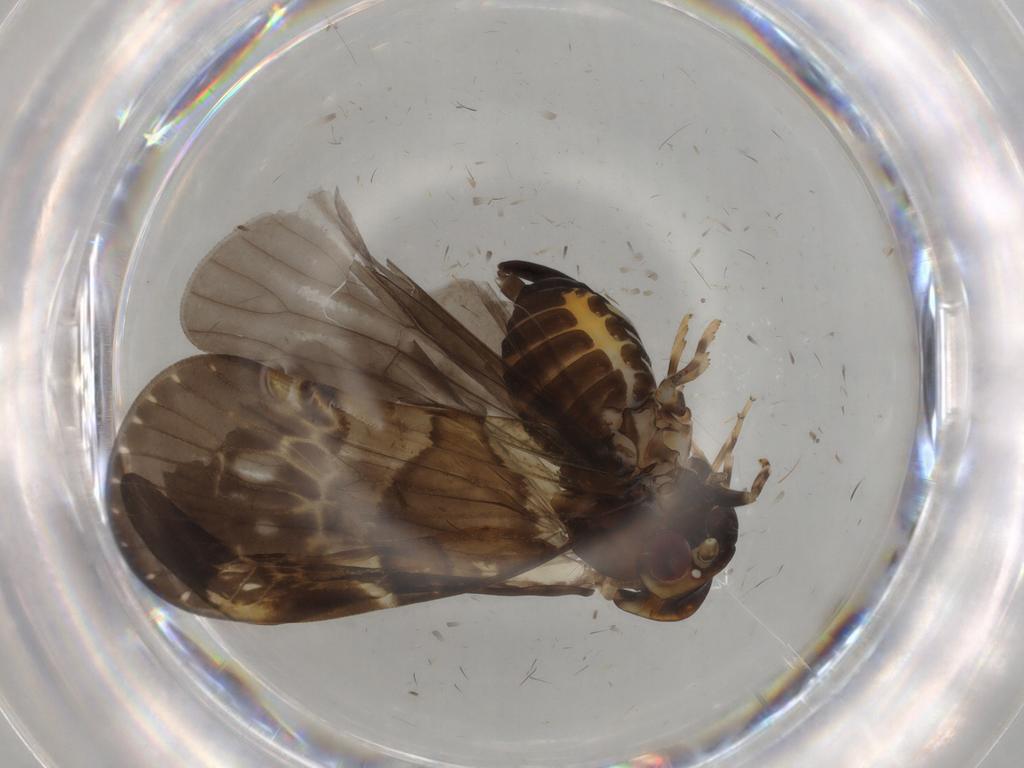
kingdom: Animalia
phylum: Arthropoda
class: Insecta
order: Hemiptera
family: Cixiidae
